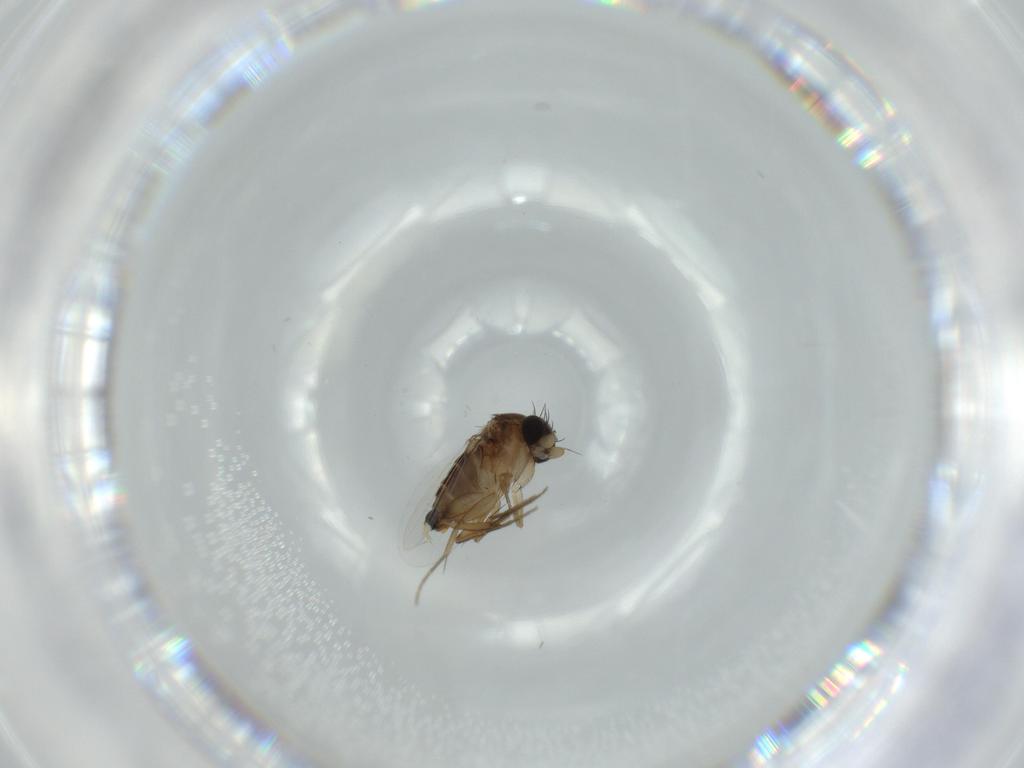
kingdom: Animalia
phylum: Arthropoda
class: Insecta
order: Diptera
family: Phoridae
